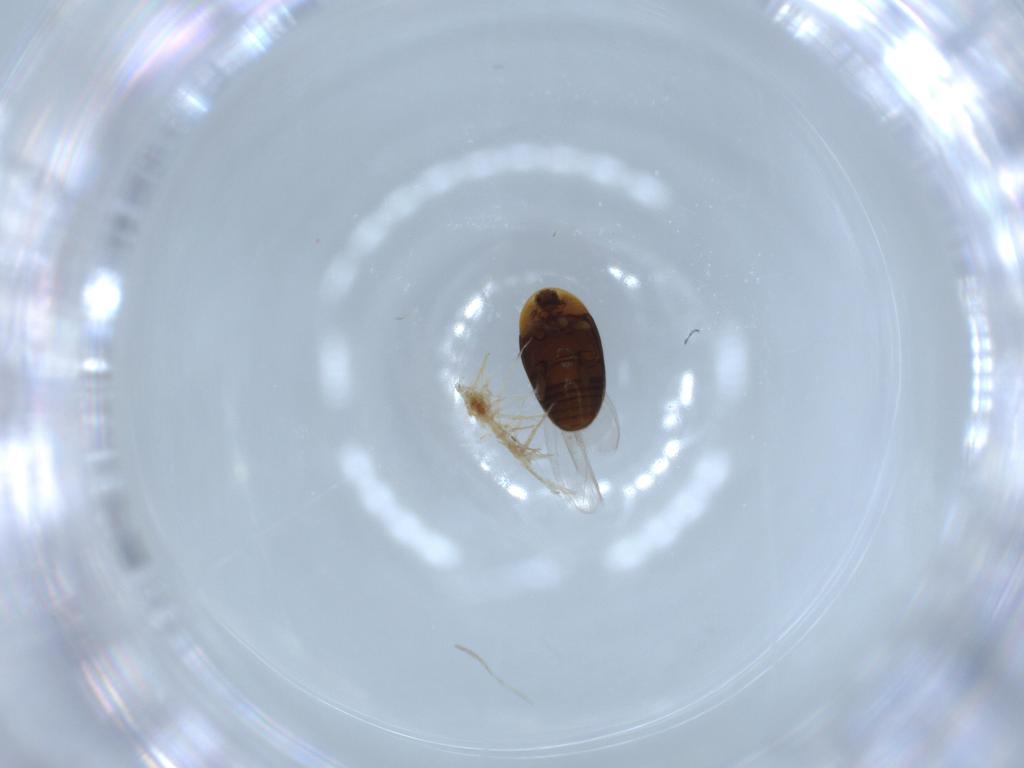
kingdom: Animalia
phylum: Arthropoda
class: Insecta
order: Coleoptera
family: Corylophidae
